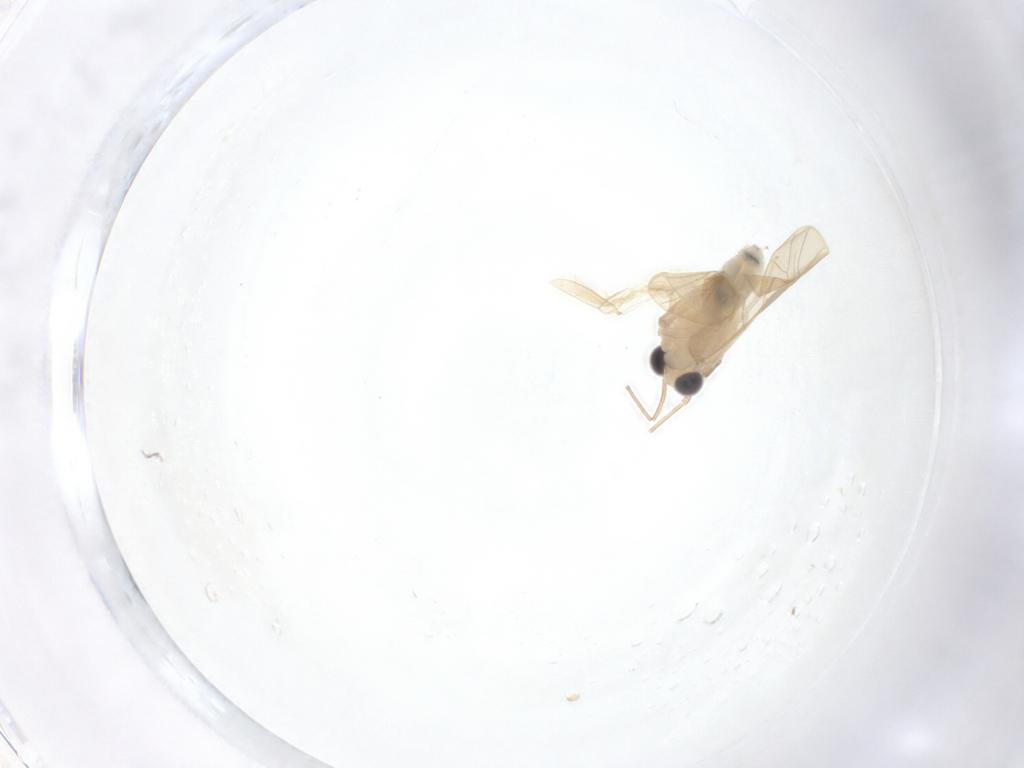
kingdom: Animalia
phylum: Arthropoda
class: Insecta
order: Psocodea
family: Caeciliusidae
